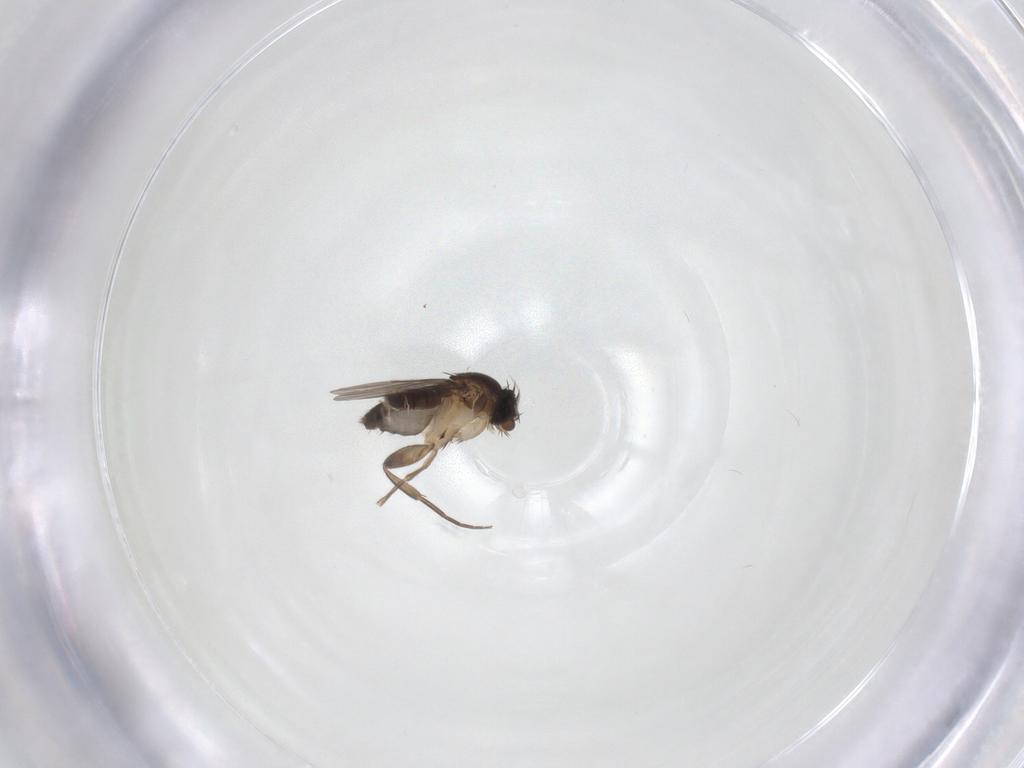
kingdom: Animalia
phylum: Arthropoda
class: Insecta
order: Diptera
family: Phoridae
